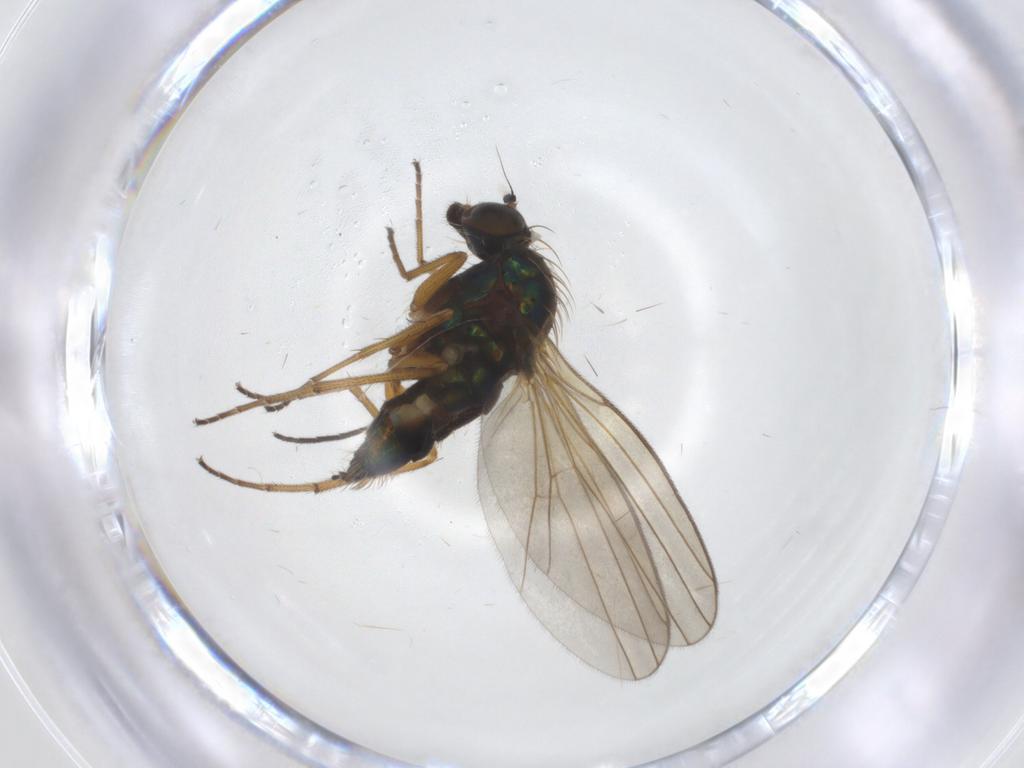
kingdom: Animalia
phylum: Arthropoda
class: Insecta
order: Diptera
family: Dolichopodidae
